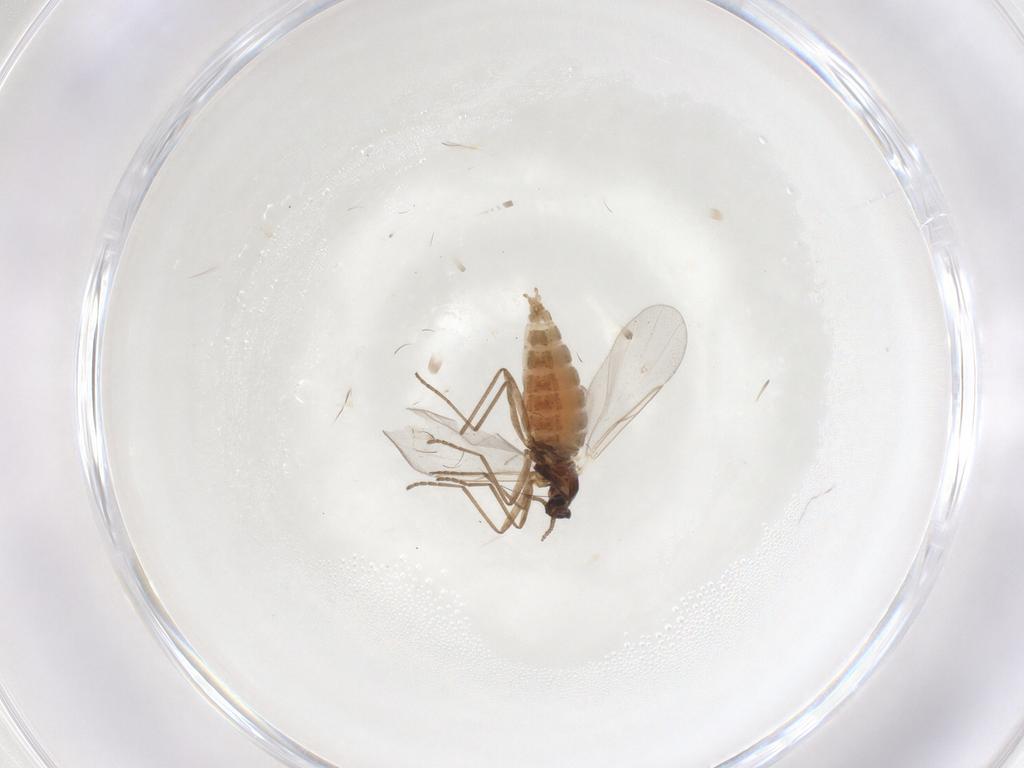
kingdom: Animalia
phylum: Arthropoda
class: Insecta
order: Diptera
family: Cecidomyiidae
